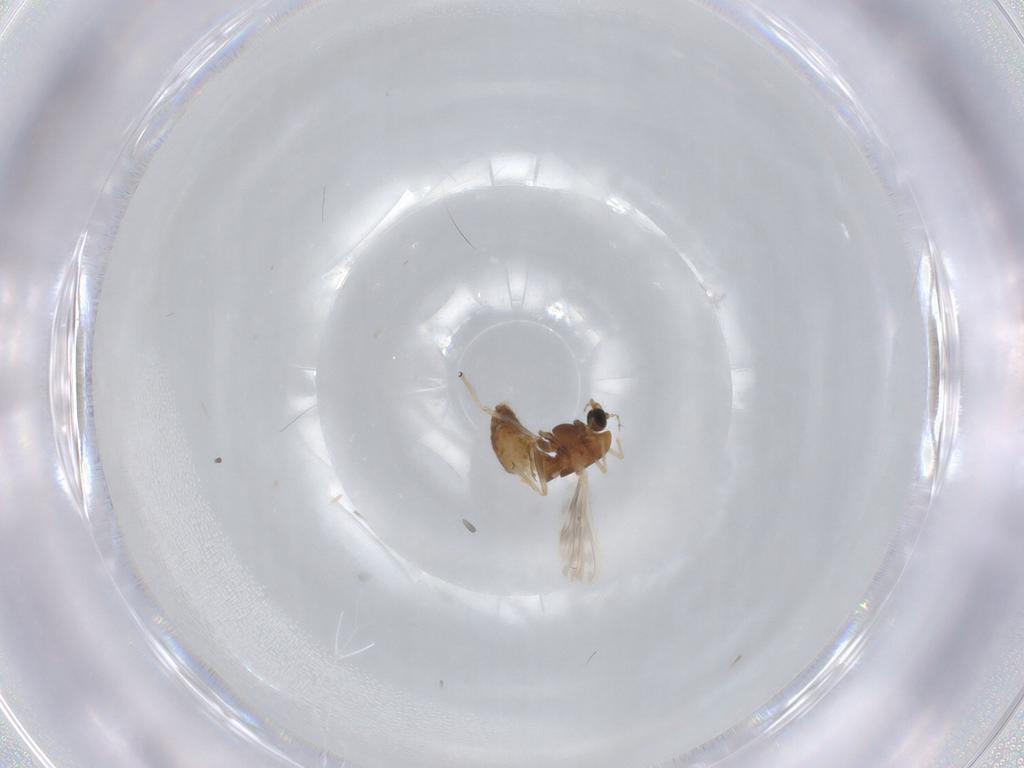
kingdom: Animalia
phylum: Arthropoda
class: Insecta
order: Diptera
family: Chironomidae
